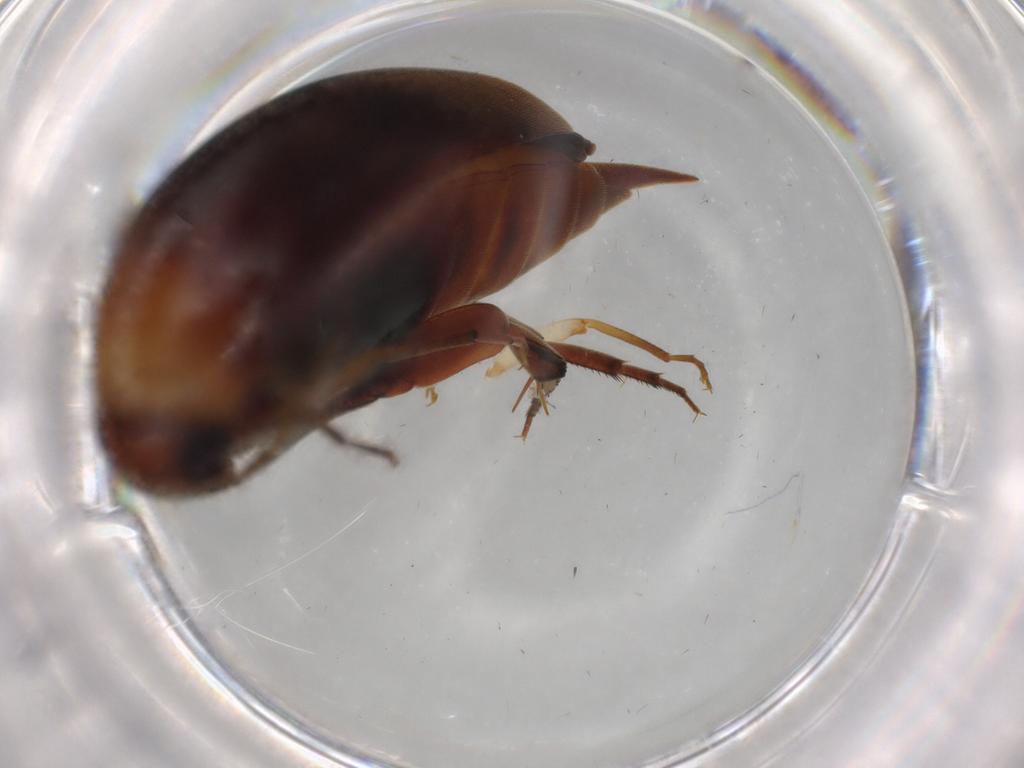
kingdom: Animalia
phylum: Arthropoda
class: Insecta
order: Coleoptera
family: Mordellidae
